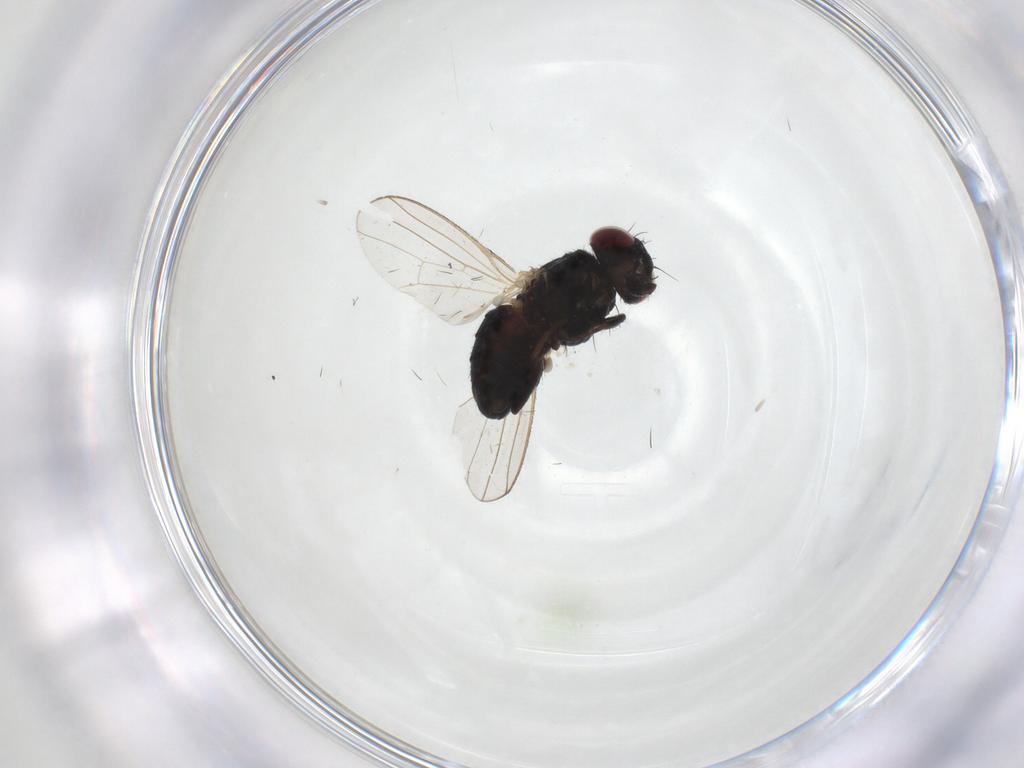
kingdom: Animalia
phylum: Arthropoda
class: Insecta
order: Diptera
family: Carnidae
